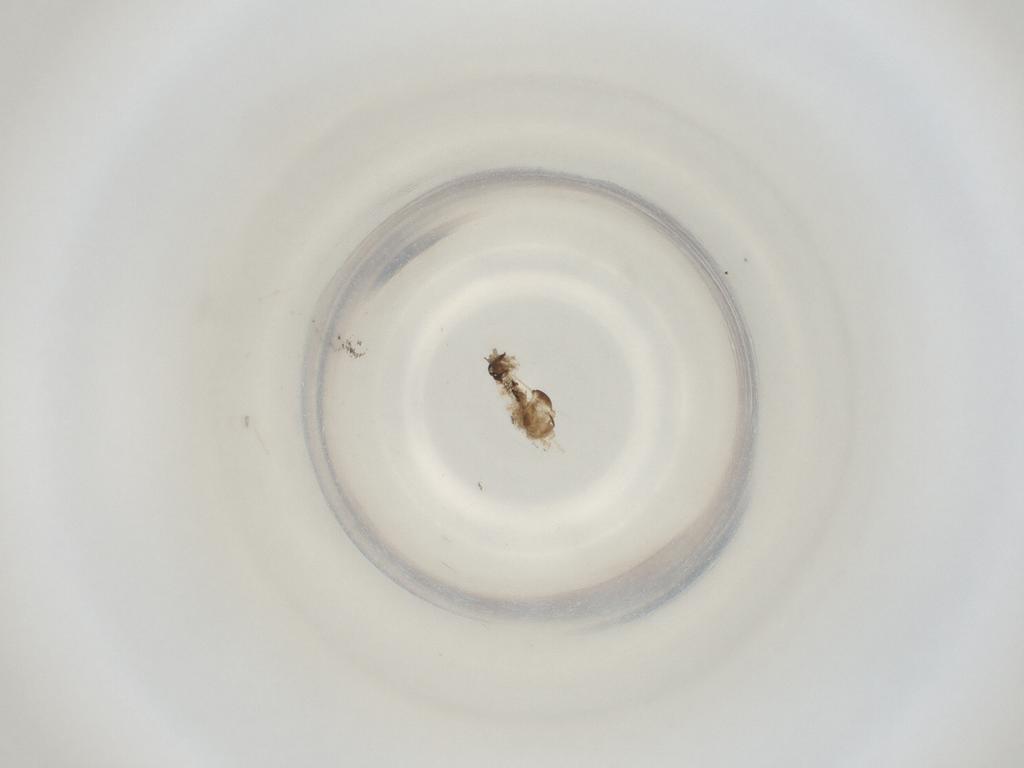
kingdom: Animalia
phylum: Arthropoda
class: Insecta
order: Diptera
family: Cecidomyiidae
